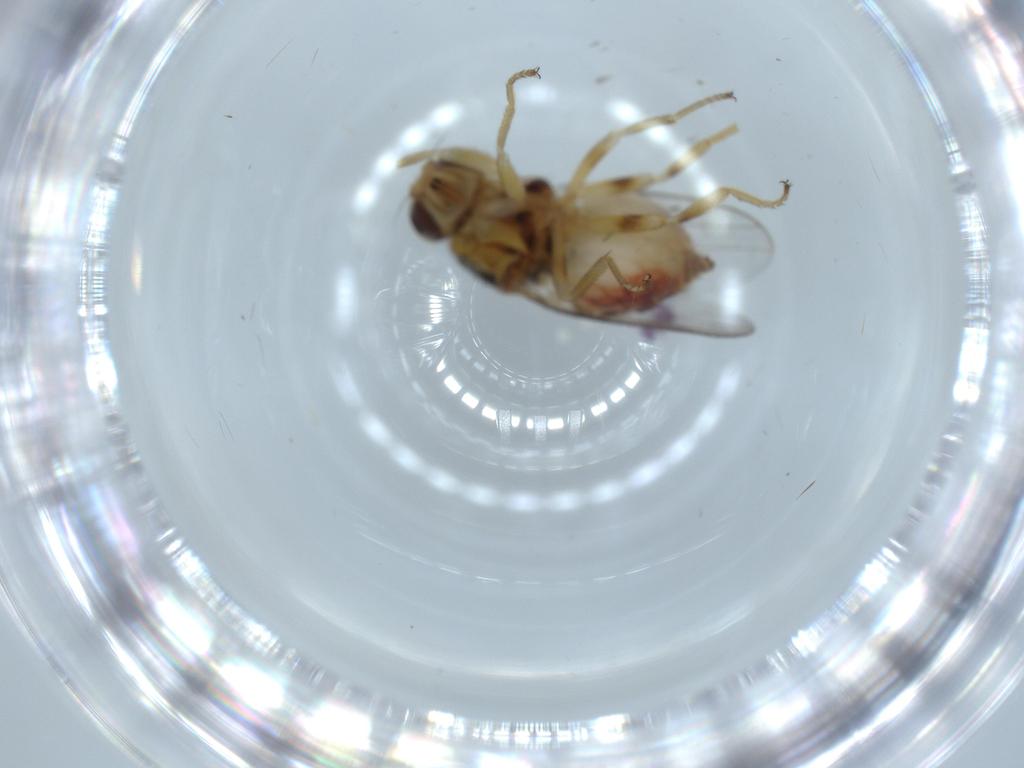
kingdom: Animalia
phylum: Arthropoda
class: Insecta
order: Diptera
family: Chloropidae
